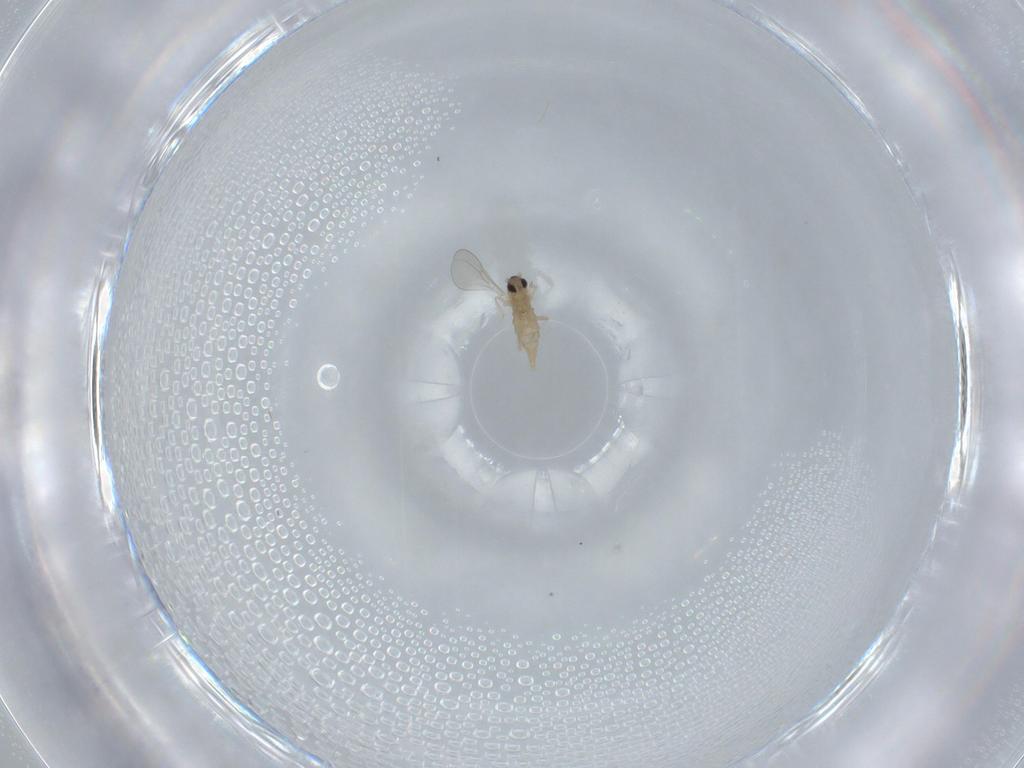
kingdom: Animalia
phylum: Arthropoda
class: Insecta
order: Diptera
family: Cecidomyiidae
